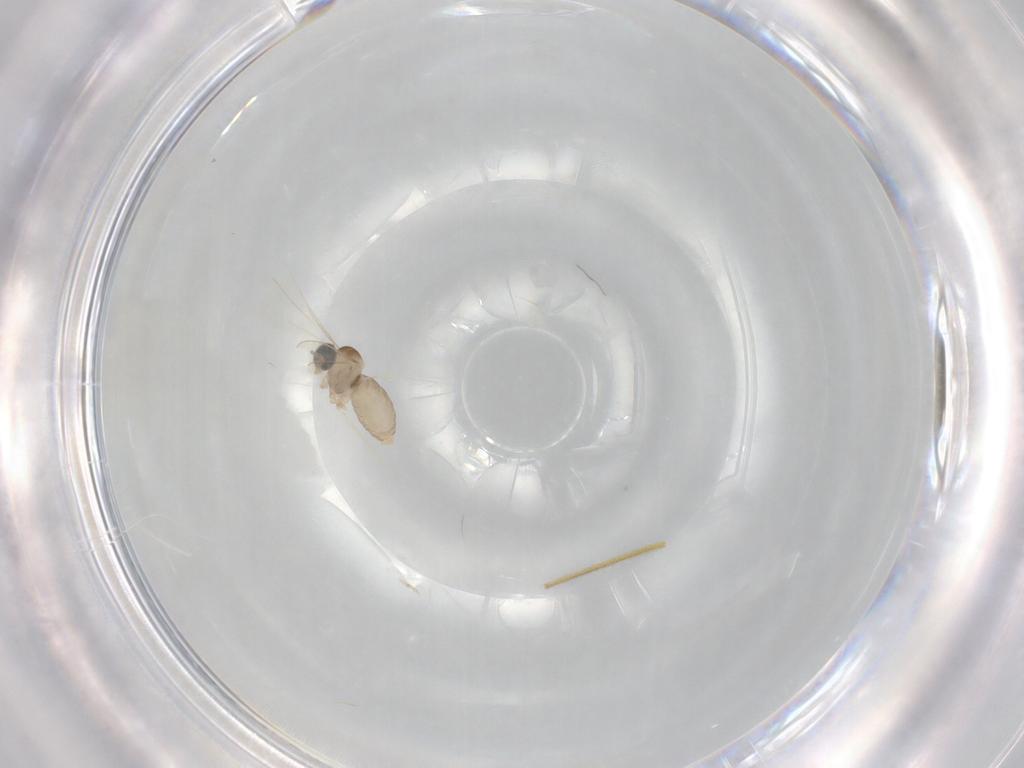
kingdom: Animalia
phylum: Arthropoda
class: Insecta
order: Diptera
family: Cecidomyiidae
